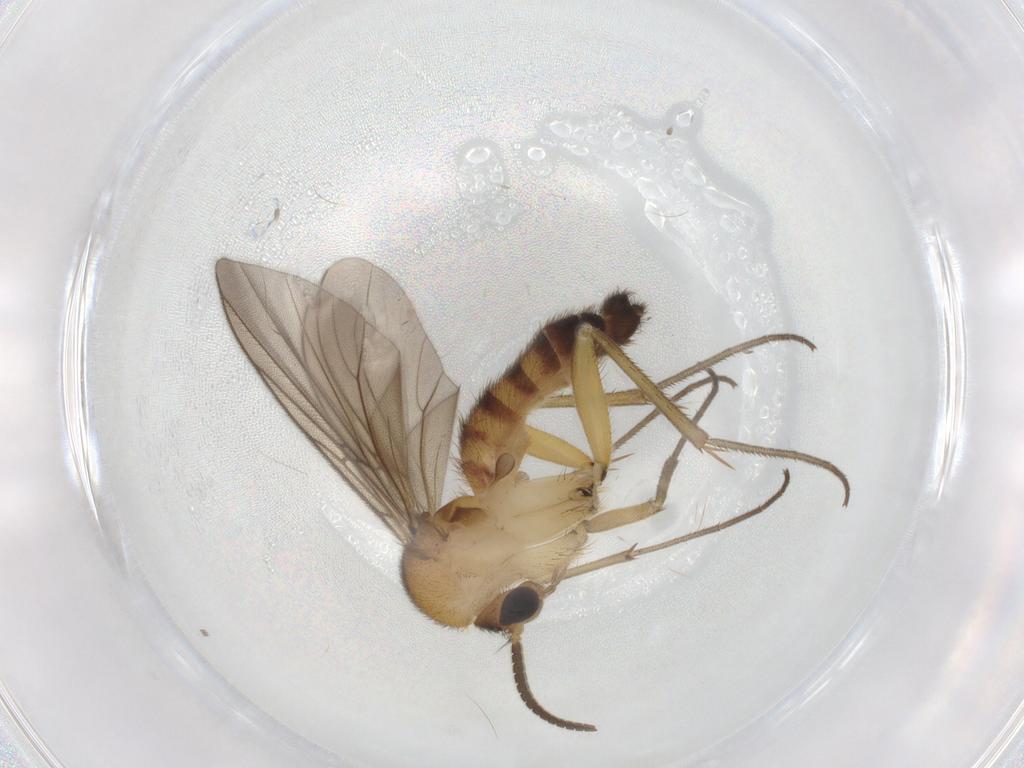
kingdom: Animalia
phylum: Arthropoda
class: Insecta
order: Diptera
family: Mycetophilidae
